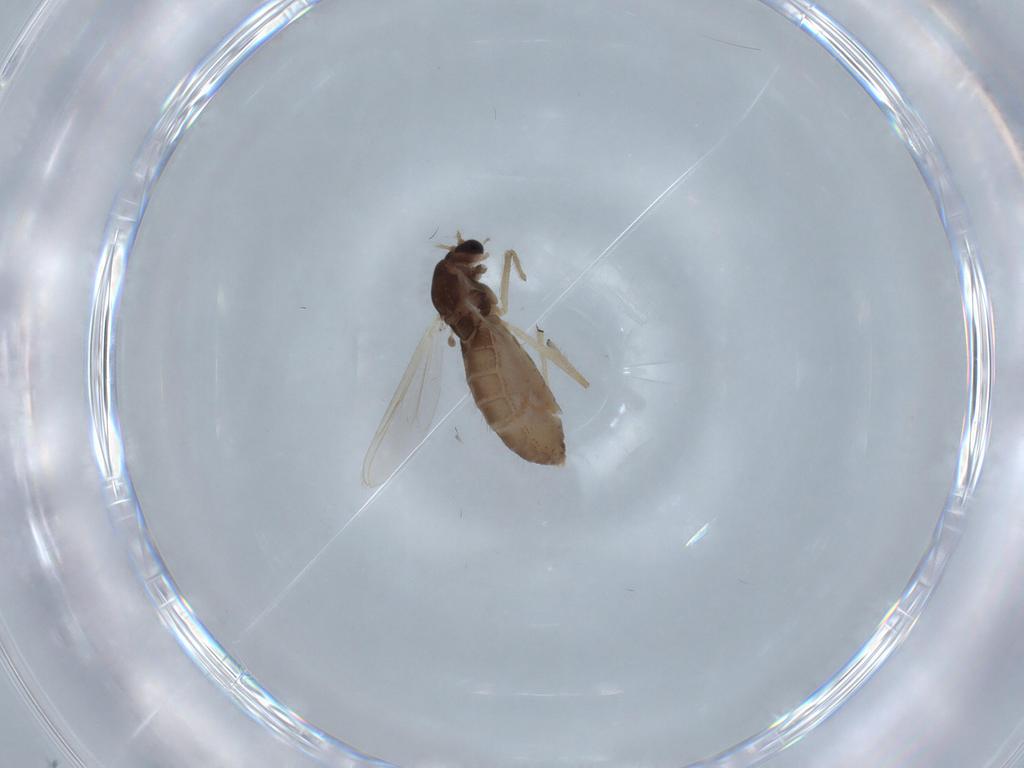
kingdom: Animalia
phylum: Arthropoda
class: Insecta
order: Diptera
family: Chironomidae
